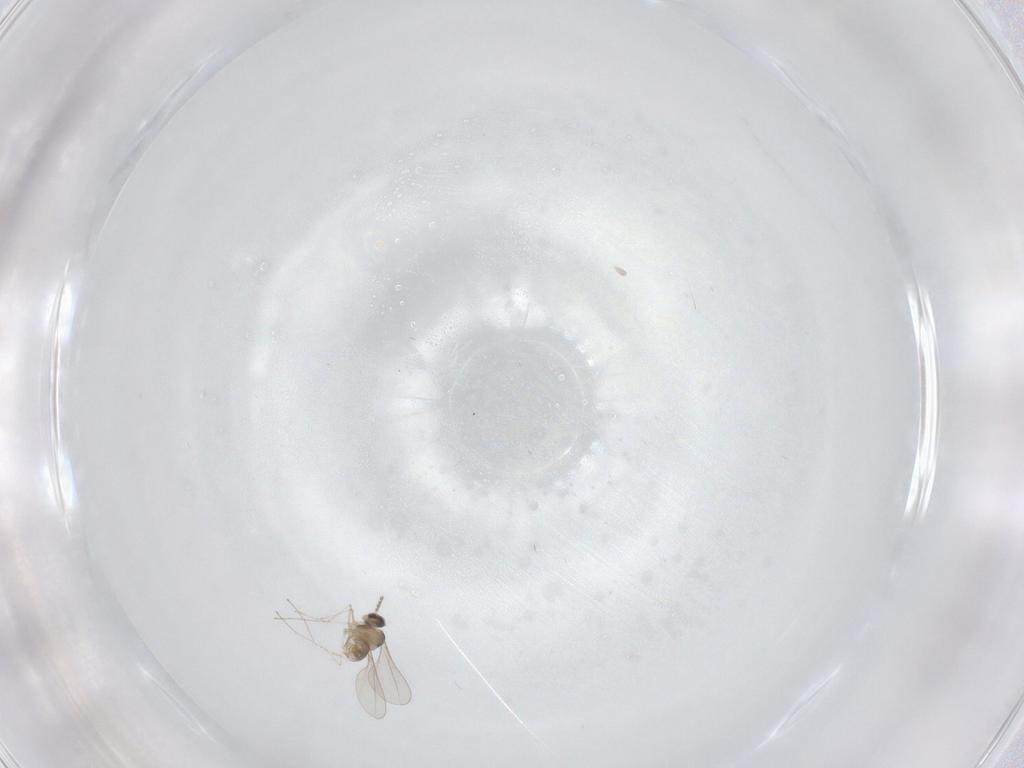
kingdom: Animalia
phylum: Arthropoda
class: Insecta
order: Diptera
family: Cecidomyiidae
